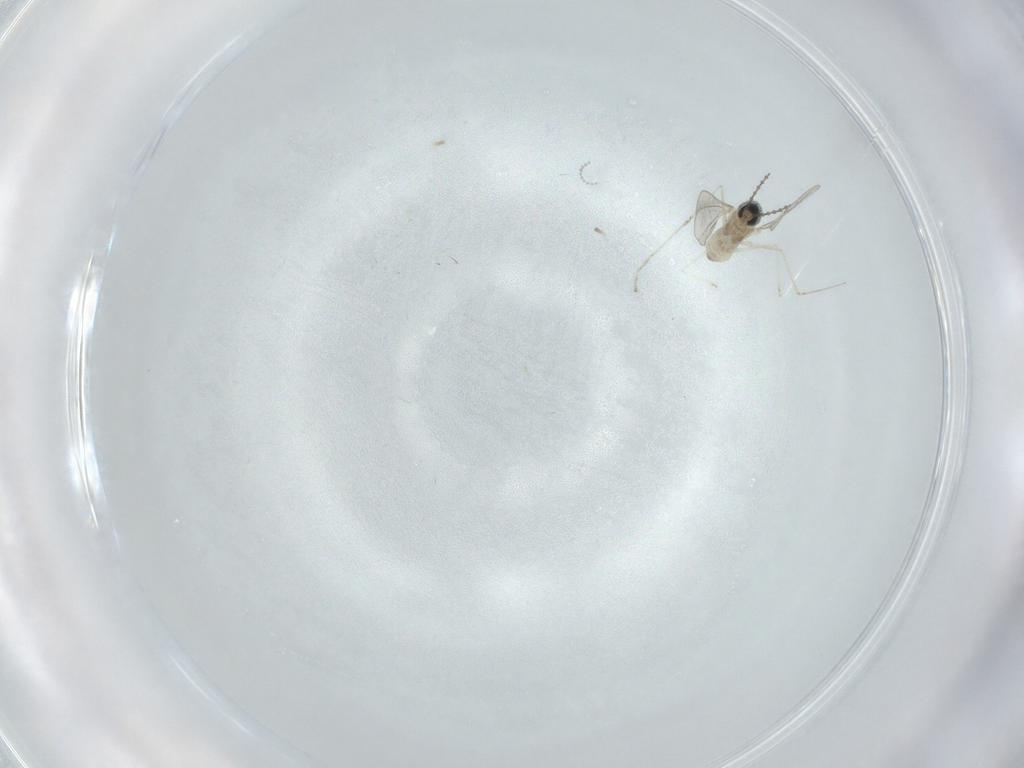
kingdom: Animalia
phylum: Arthropoda
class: Insecta
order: Diptera
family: Cecidomyiidae
